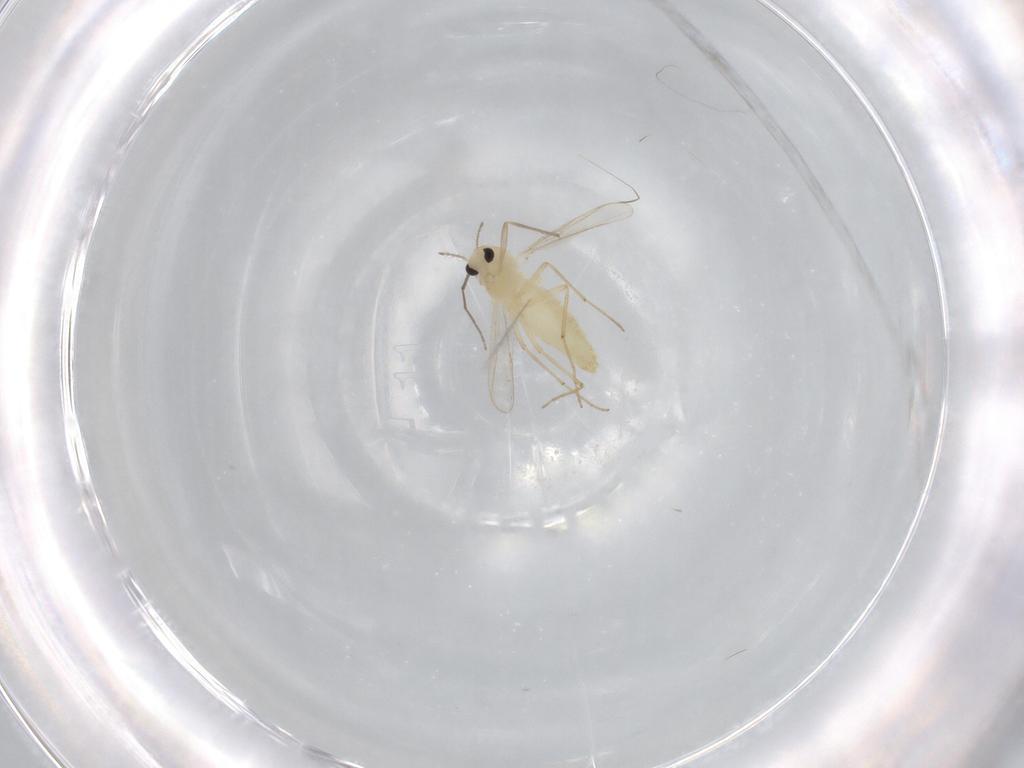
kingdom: Animalia
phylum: Arthropoda
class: Insecta
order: Diptera
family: Chironomidae
